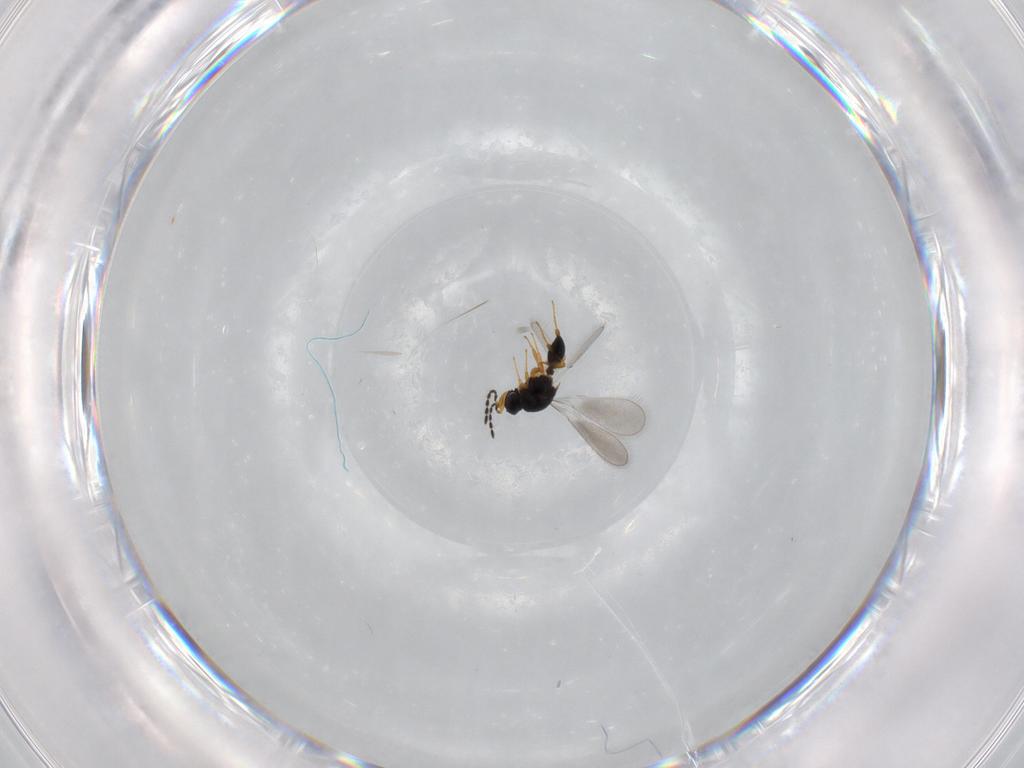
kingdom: Animalia
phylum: Arthropoda
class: Insecta
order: Hymenoptera
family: Platygastridae
